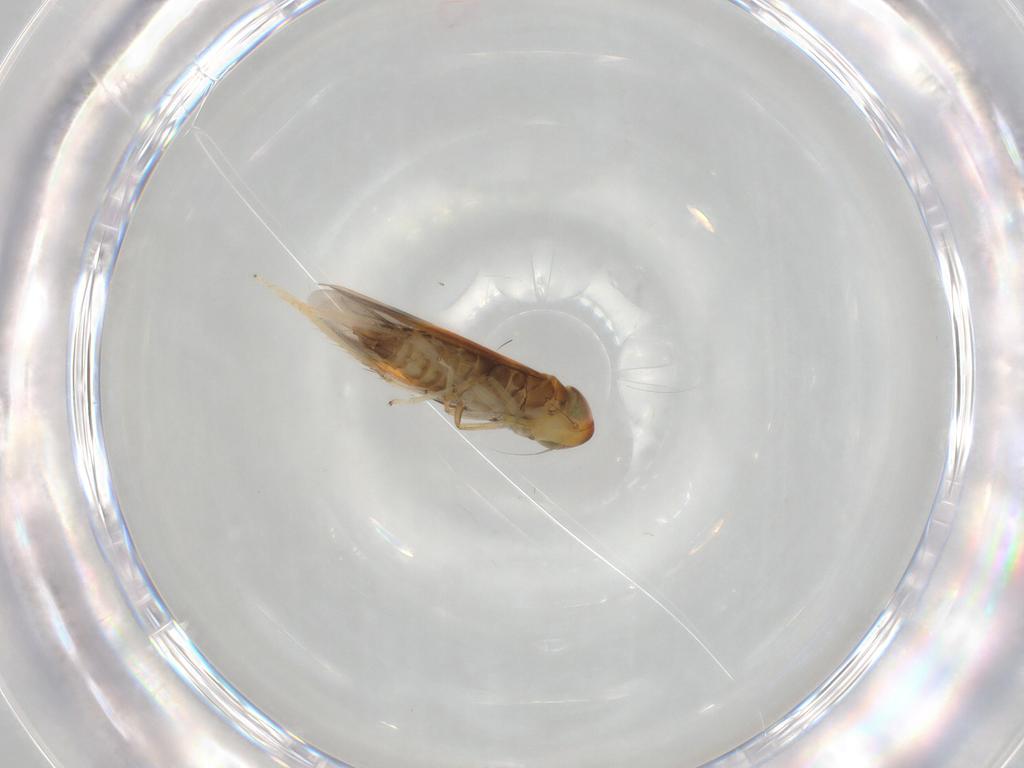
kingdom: Animalia
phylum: Arthropoda
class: Insecta
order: Hemiptera
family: Cicadellidae
